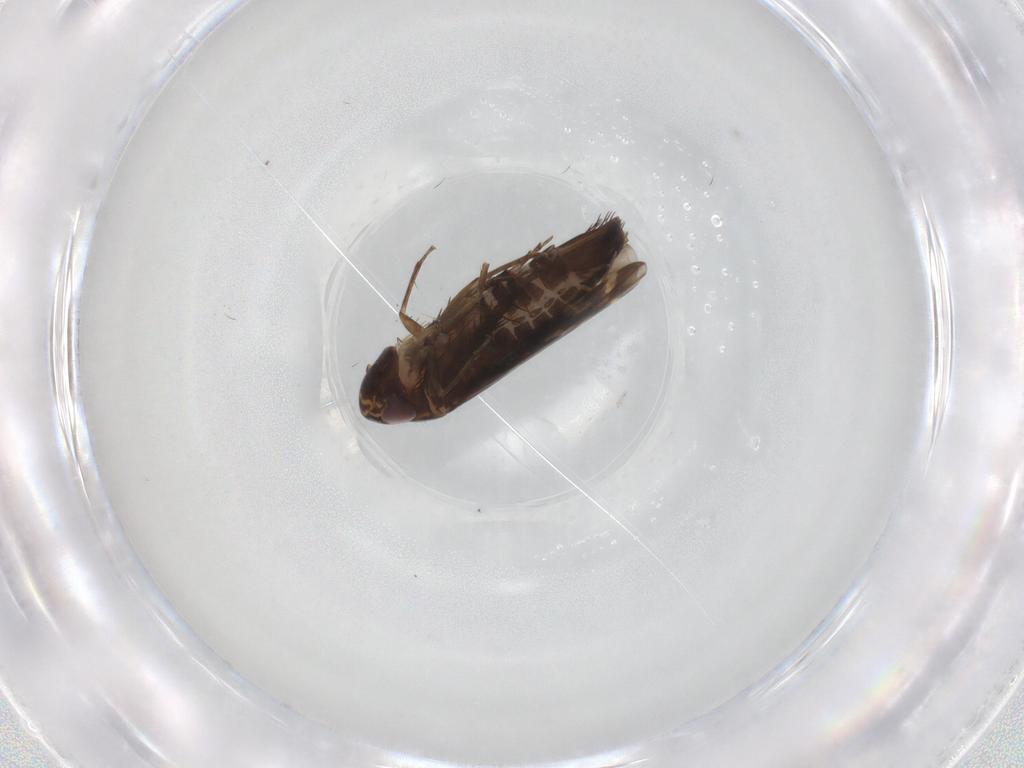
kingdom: Animalia
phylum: Arthropoda
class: Insecta
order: Hemiptera
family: Cicadellidae
